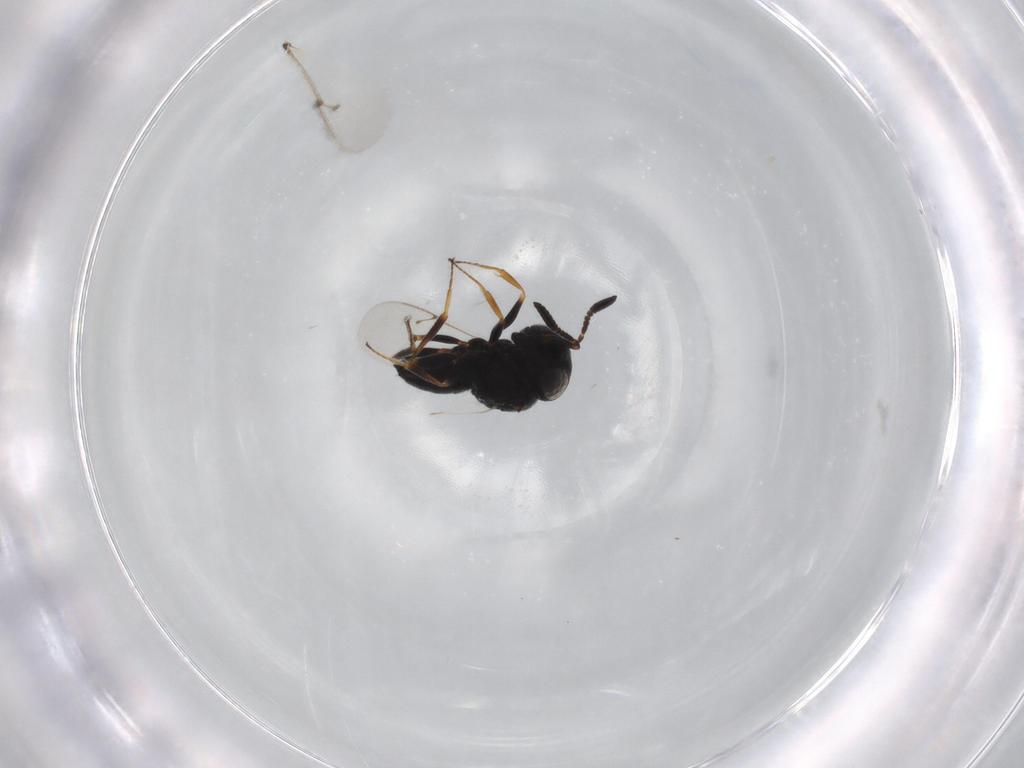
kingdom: Animalia
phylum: Arthropoda
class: Insecta
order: Hymenoptera
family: Scelionidae
